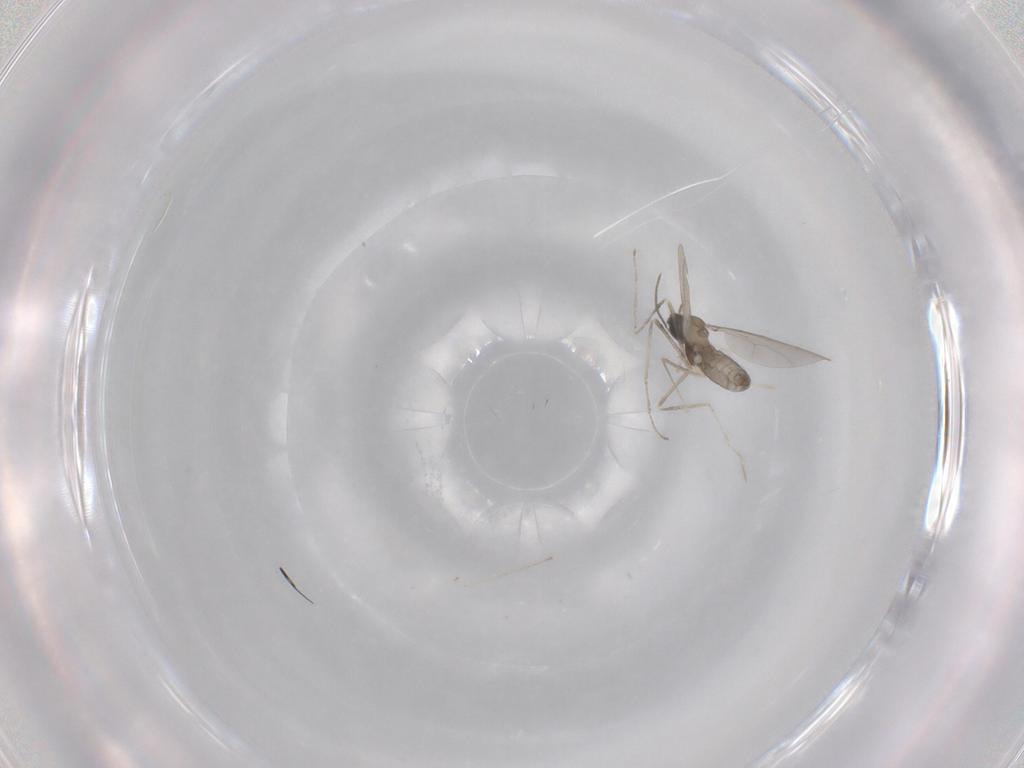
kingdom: Animalia
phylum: Arthropoda
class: Insecta
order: Diptera
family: Cecidomyiidae
